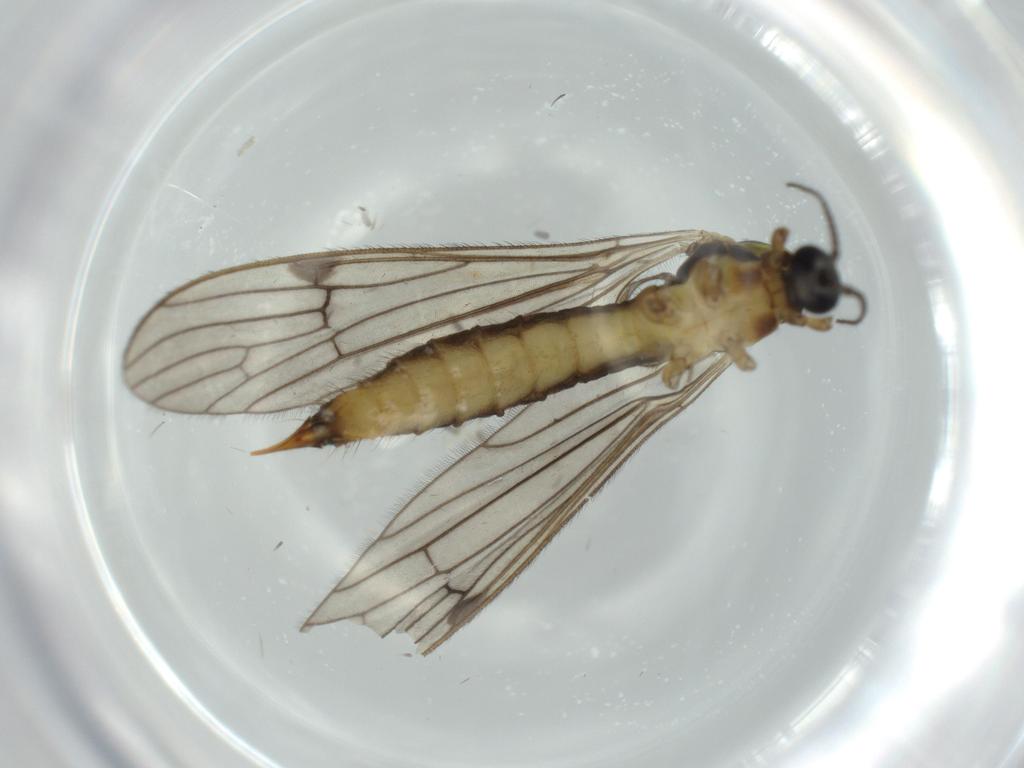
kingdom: Animalia
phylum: Arthropoda
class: Insecta
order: Diptera
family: Limoniidae
